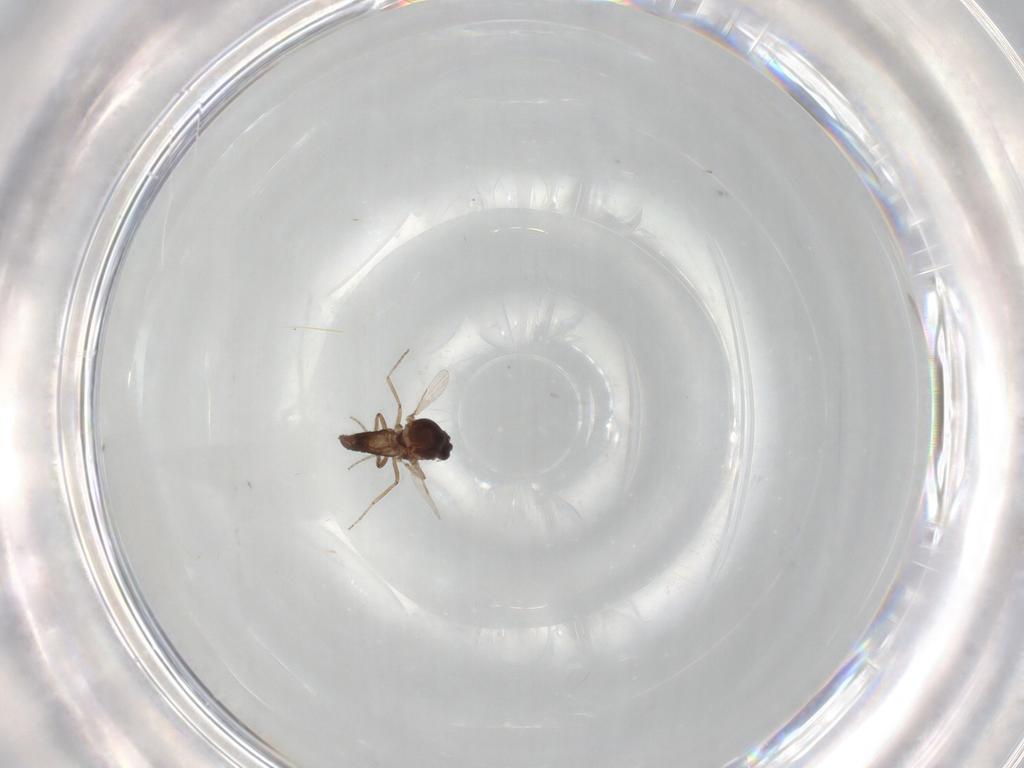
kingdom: Animalia
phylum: Arthropoda
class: Insecta
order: Diptera
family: Ceratopogonidae
